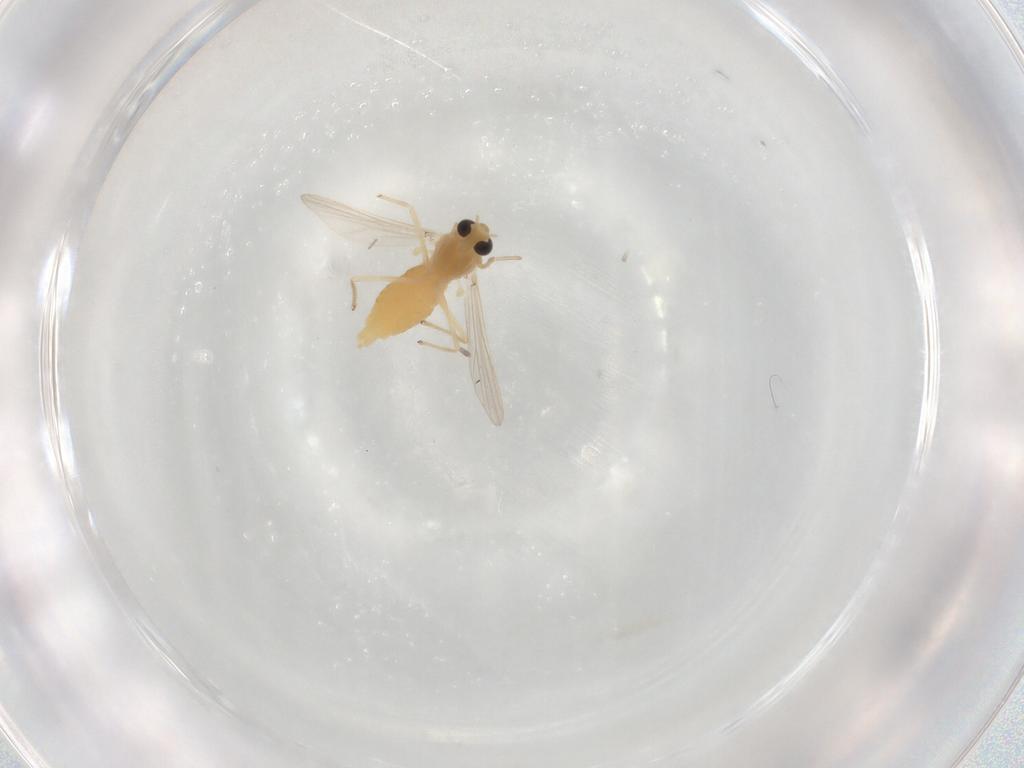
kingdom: Animalia
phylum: Arthropoda
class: Insecta
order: Diptera
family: Chironomidae
